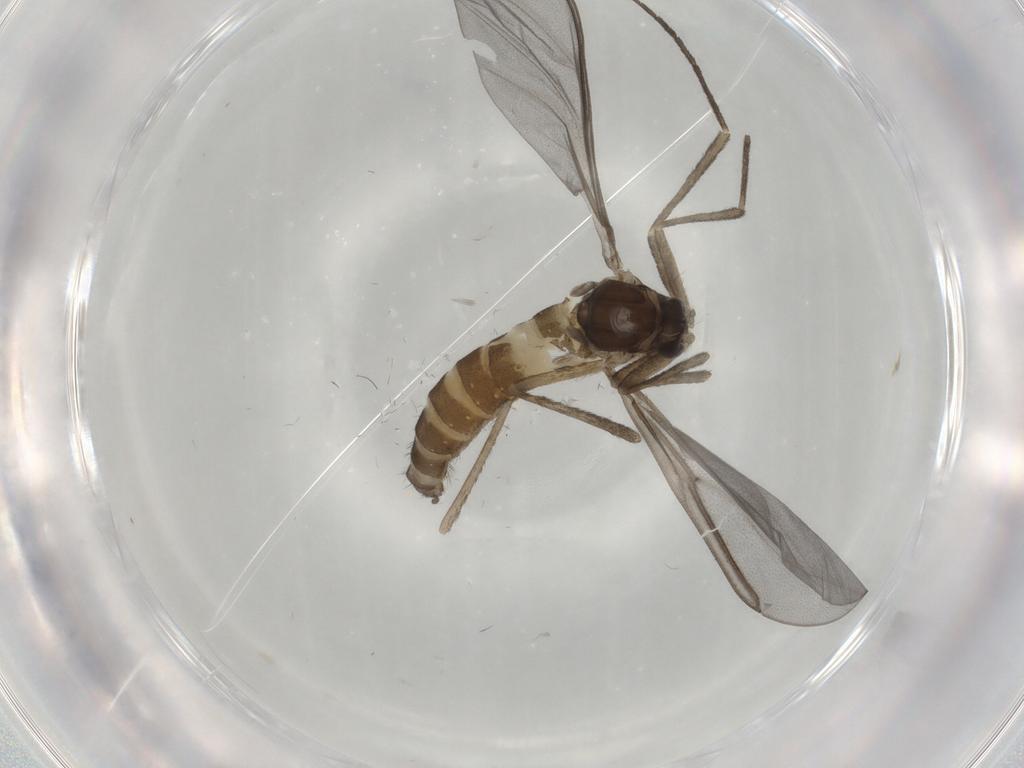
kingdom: Animalia
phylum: Arthropoda
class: Insecta
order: Diptera
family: Cecidomyiidae
